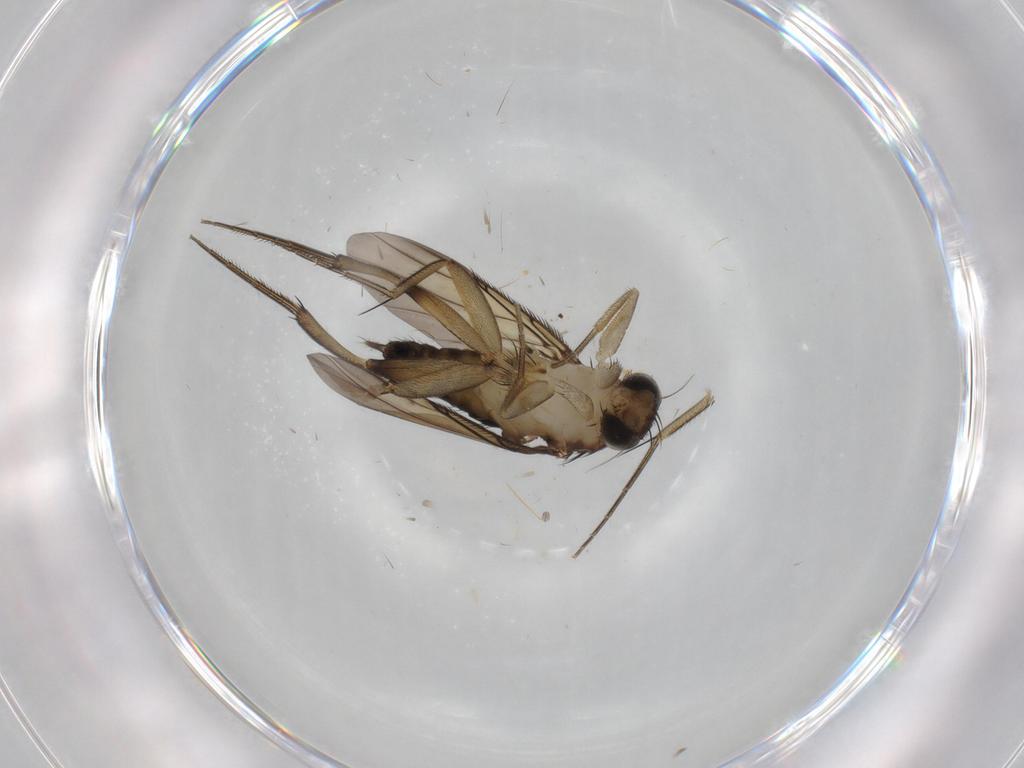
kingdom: Animalia
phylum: Arthropoda
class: Insecta
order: Diptera
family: Phoridae
